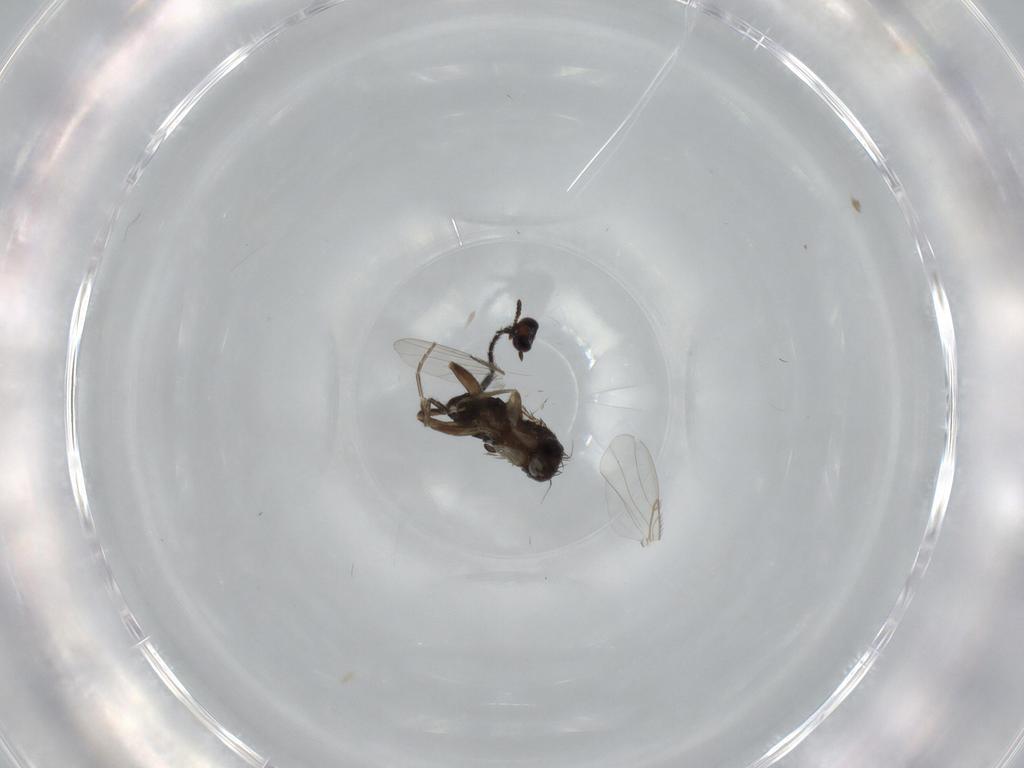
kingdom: Animalia
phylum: Arthropoda
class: Insecta
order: Diptera
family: Phoridae
